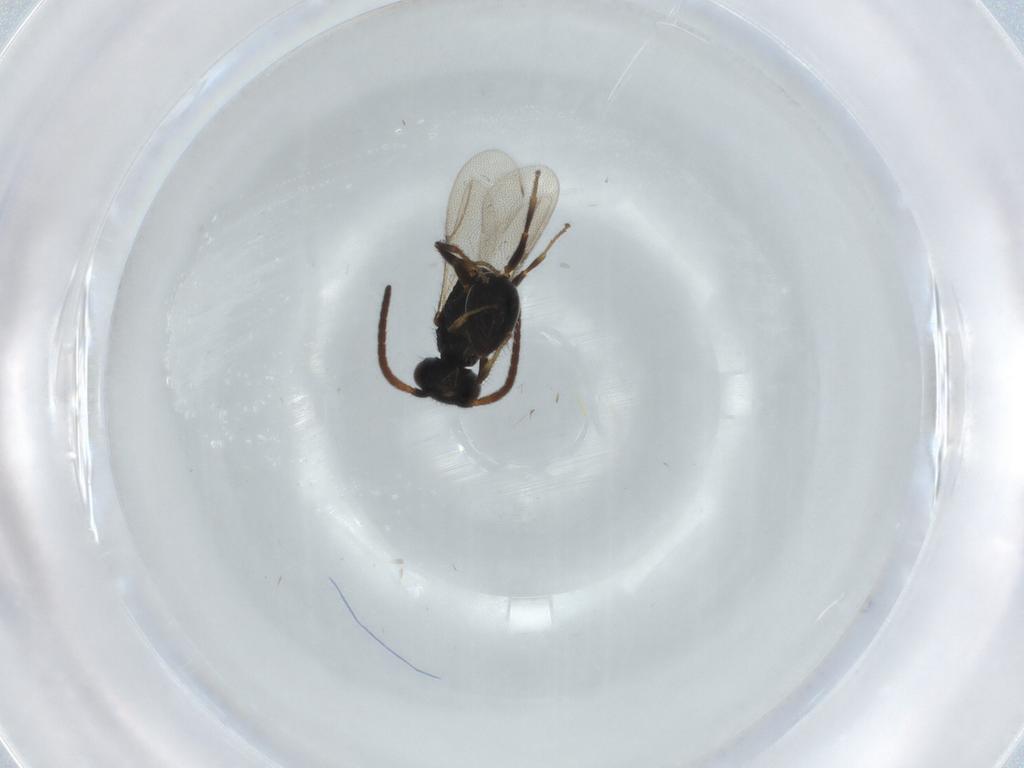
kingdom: Animalia
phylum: Arthropoda
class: Insecta
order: Hymenoptera
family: Bethylidae
